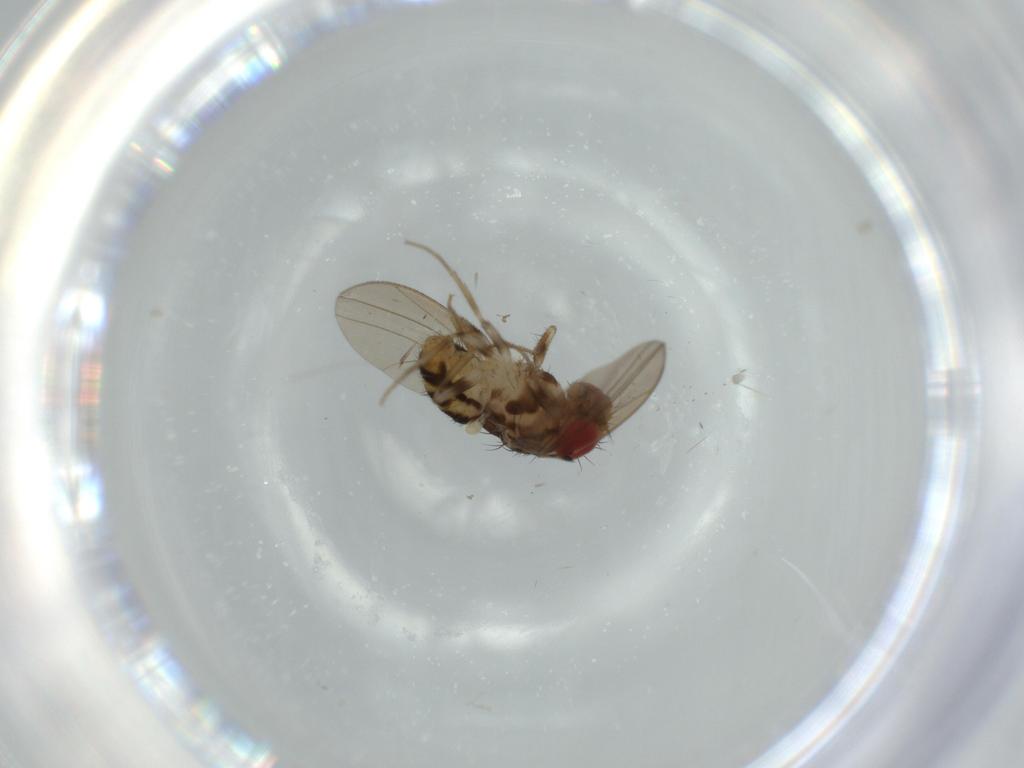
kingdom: Animalia
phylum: Arthropoda
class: Insecta
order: Diptera
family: Drosophilidae
